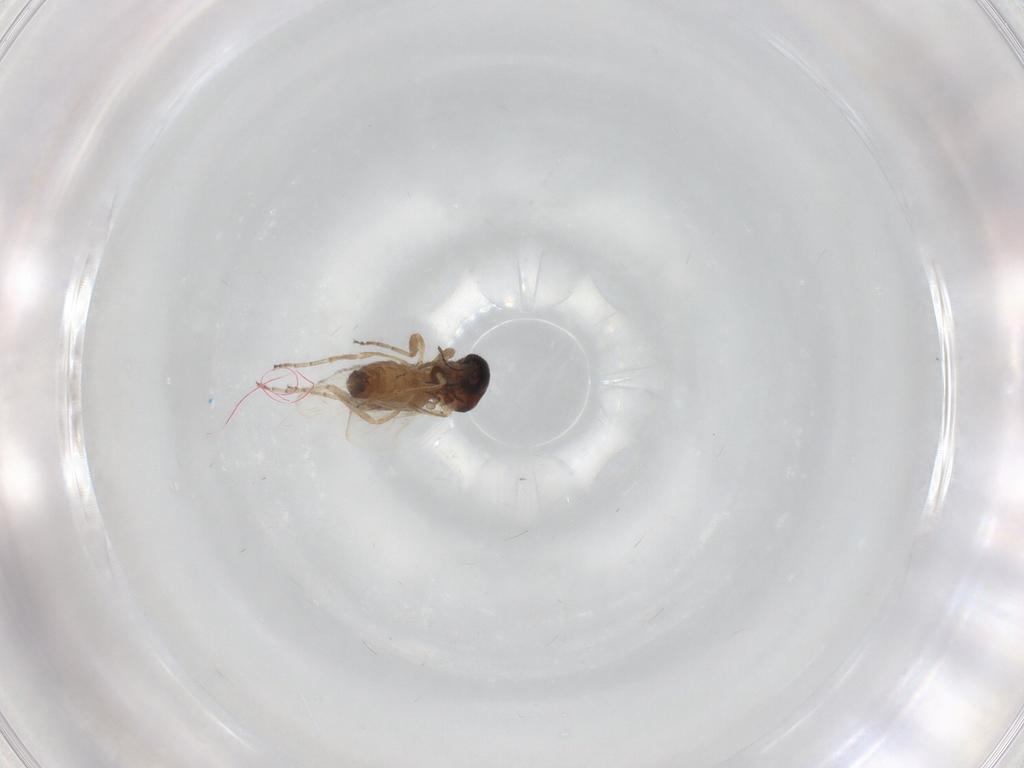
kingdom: Animalia
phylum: Arthropoda
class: Insecta
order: Diptera
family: Ceratopogonidae
